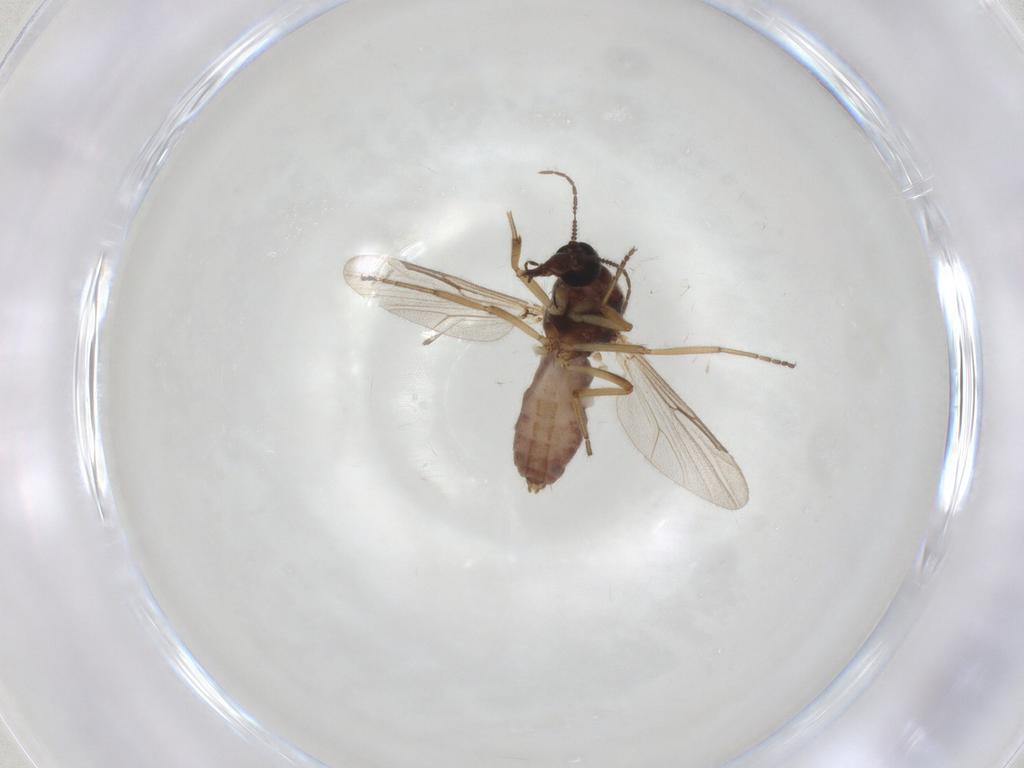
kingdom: Animalia
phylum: Arthropoda
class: Insecta
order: Diptera
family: Ceratopogonidae
